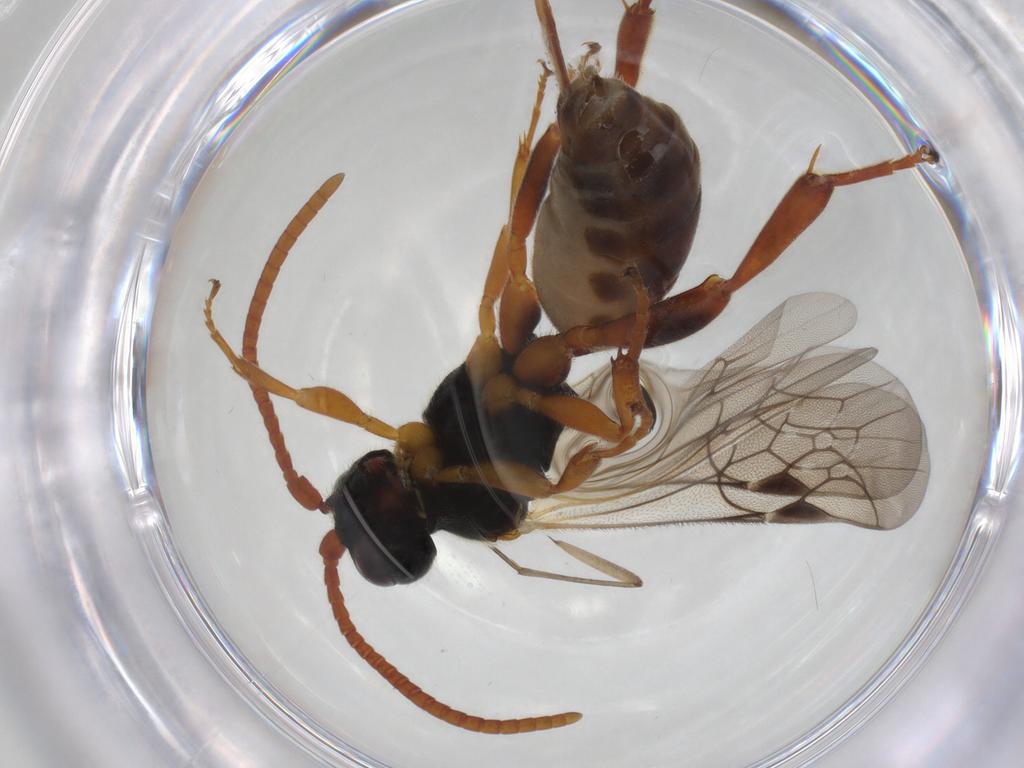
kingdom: Animalia
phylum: Arthropoda
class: Insecta
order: Hymenoptera
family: Ichneumonidae
